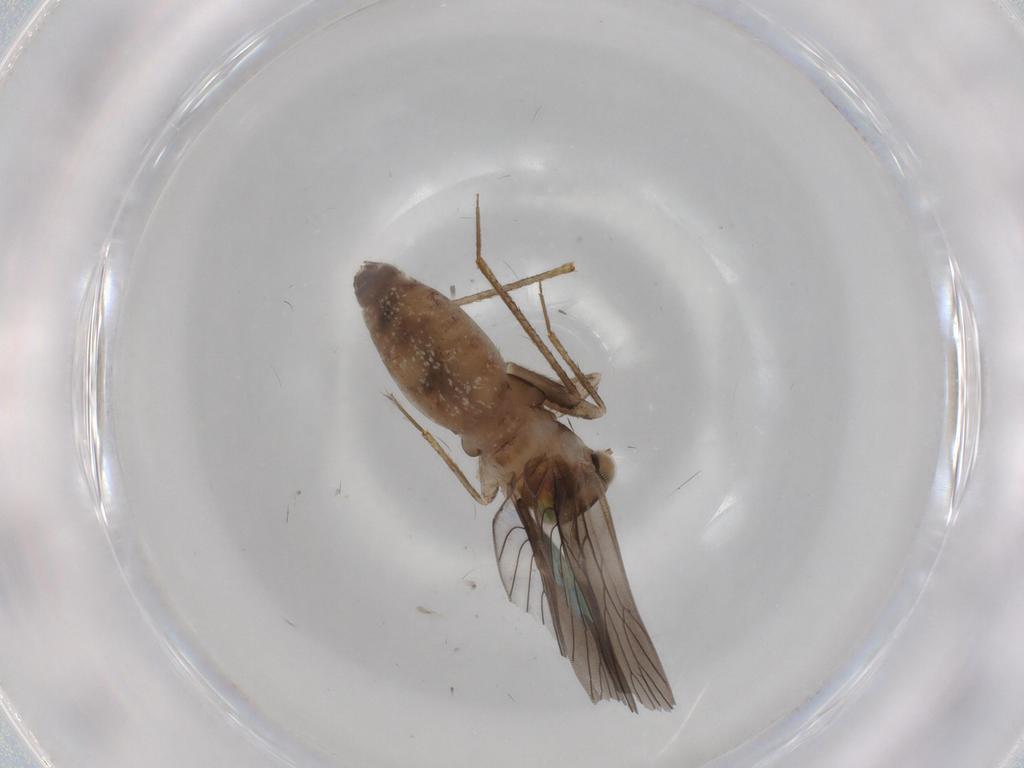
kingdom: Animalia
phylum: Arthropoda
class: Insecta
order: Psocodea
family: Lepidopsocidae
